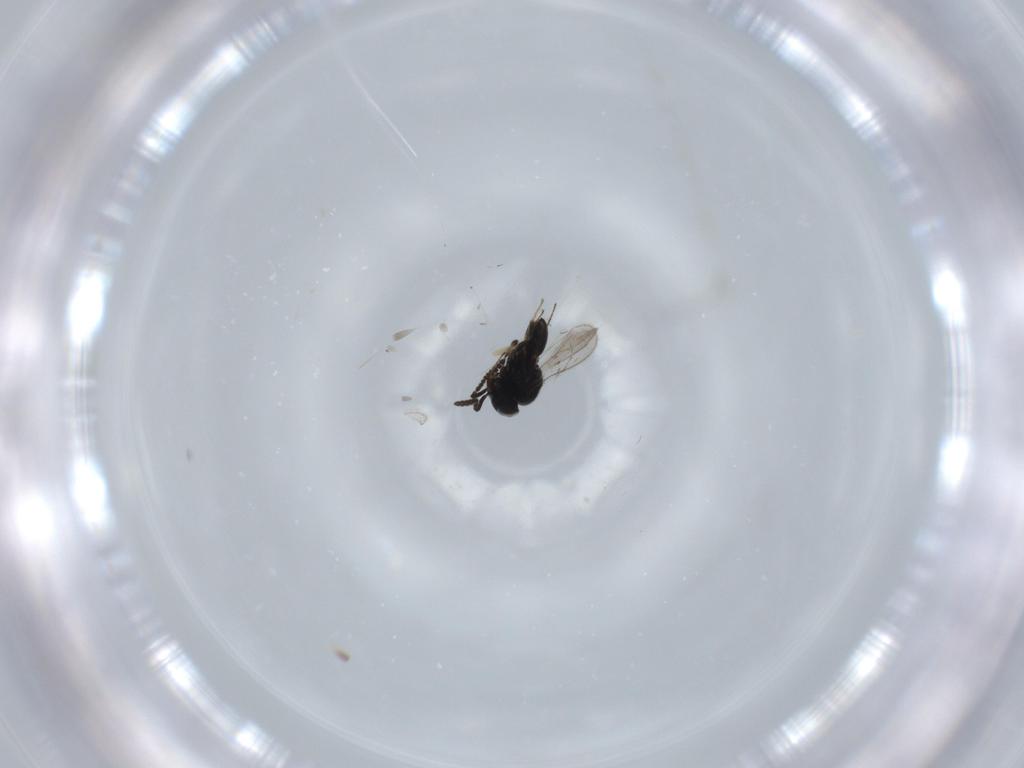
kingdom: Animalia
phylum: Arthropoda
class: Insecta
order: Hymenoptera
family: Scelionidae
